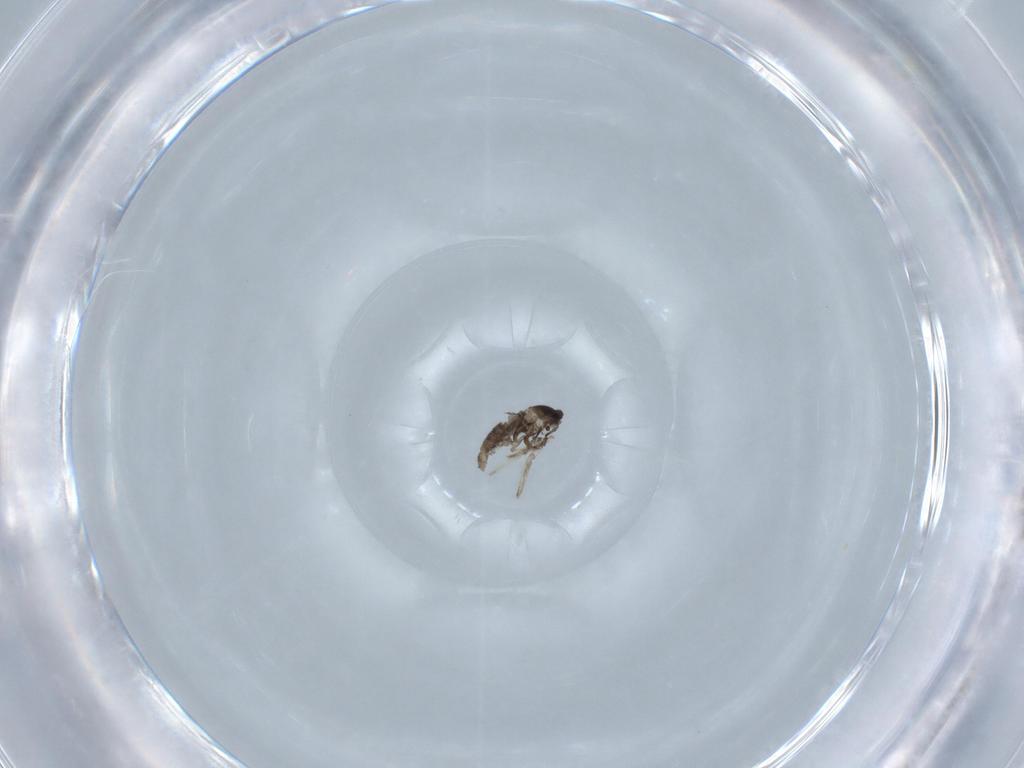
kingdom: Animalia
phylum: Arthropoda
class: Insecta
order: Diptera
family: Cecidomyiidae
